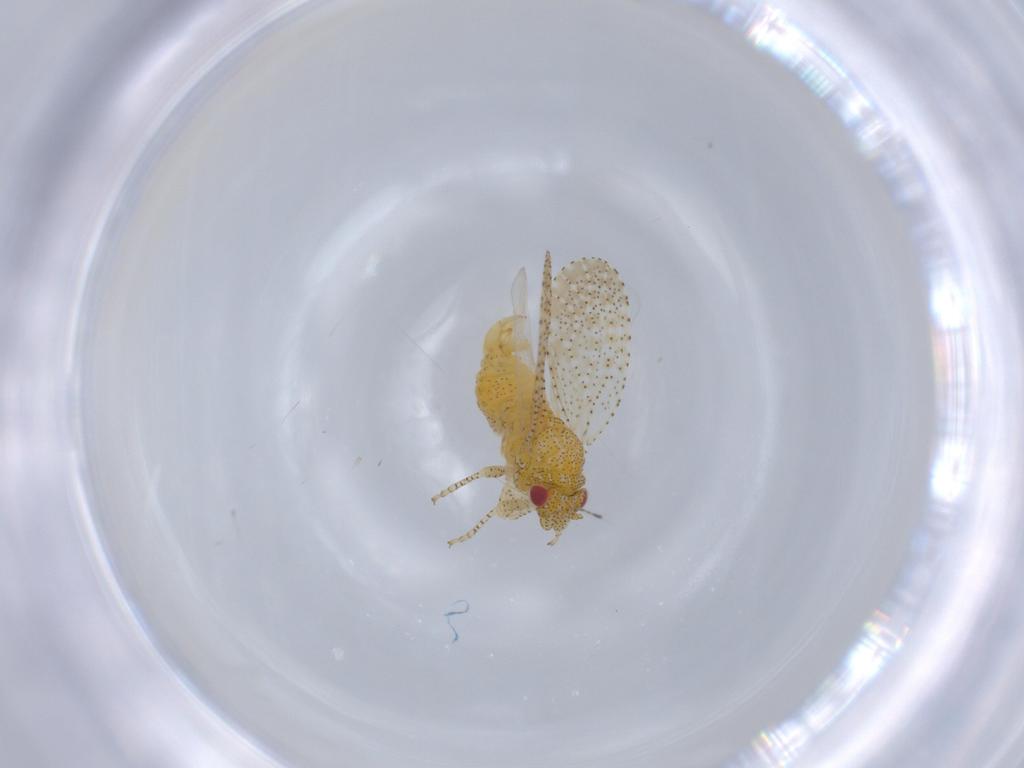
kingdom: Animalia
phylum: Arthropoda
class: Insecta
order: Hemiptera
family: Psyllidae
